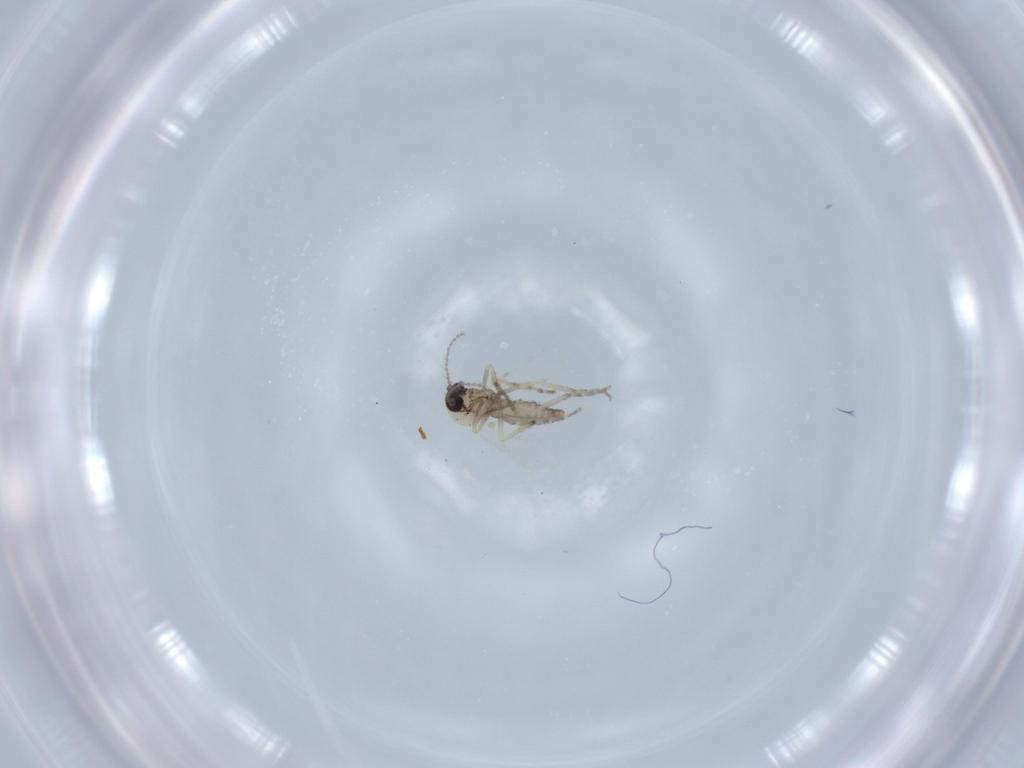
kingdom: Animalia
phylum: Arthropoda
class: Insecta
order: Diptera
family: Ceratopogonidae
